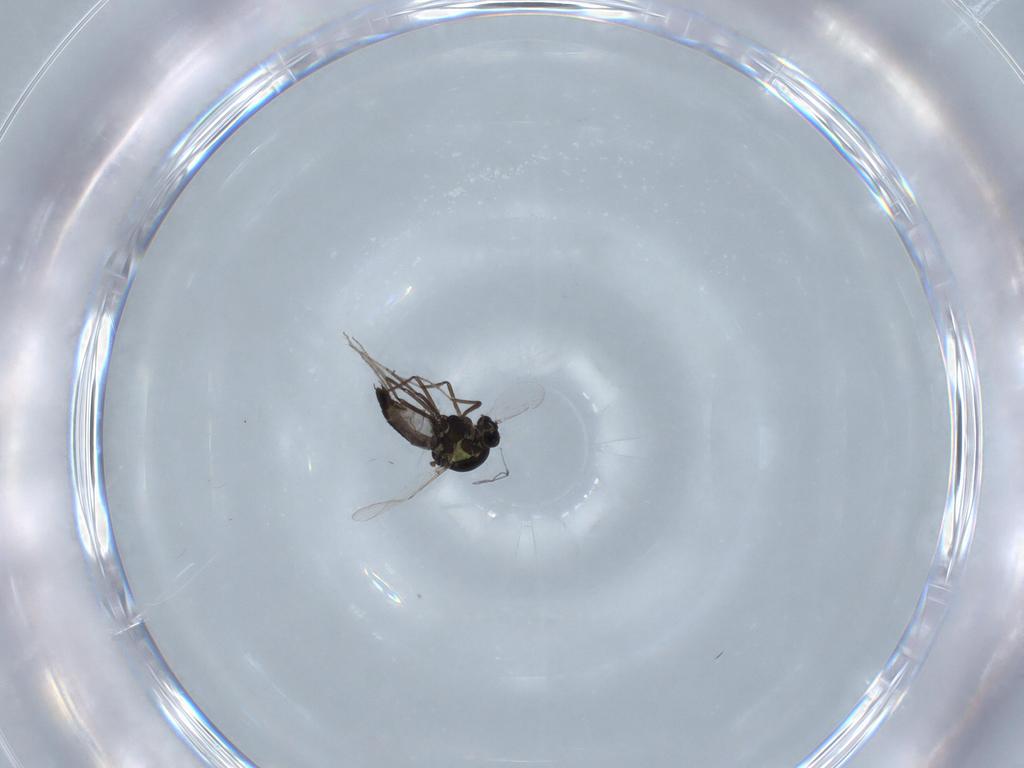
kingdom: Animalia
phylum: Arthropoda
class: Insecta
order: Diptera
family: Ceratopogonidae
